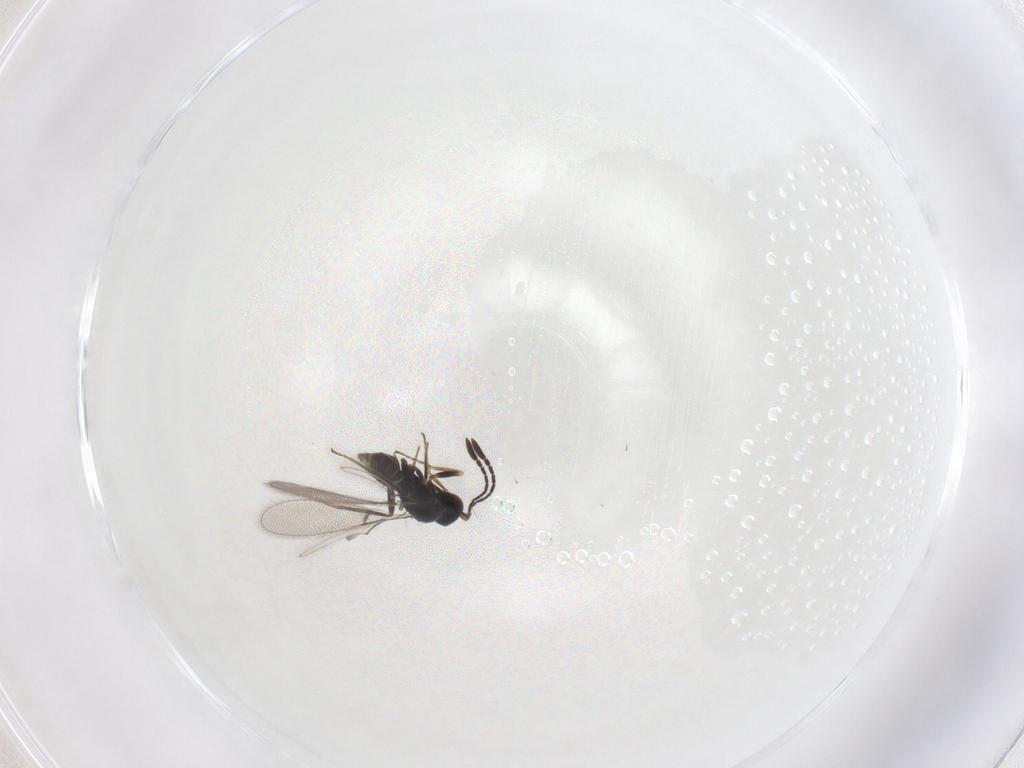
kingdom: Animalia
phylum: Arthropoda
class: Insecta
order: Hymenoptera
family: Mymaridae
